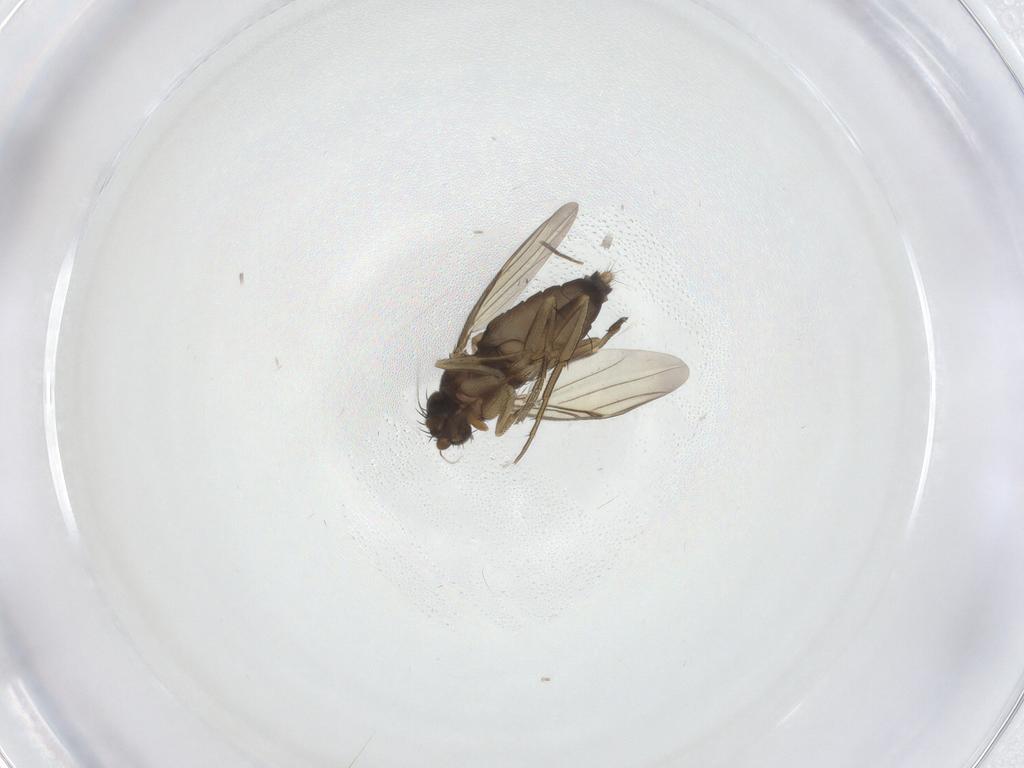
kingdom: Animalia
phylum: Arthropoda
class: Insecta
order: Diptera
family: Phoridae
